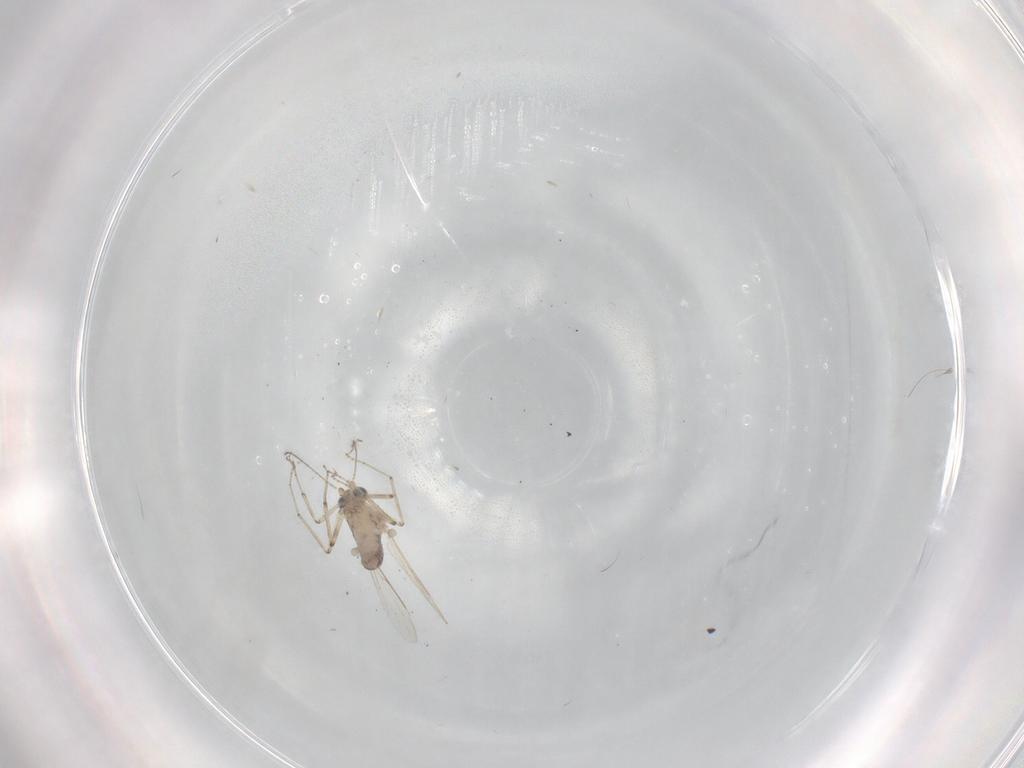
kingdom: Animalia
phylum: Arthropoda
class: Insecta
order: Diptera
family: Ceratopogonidae
